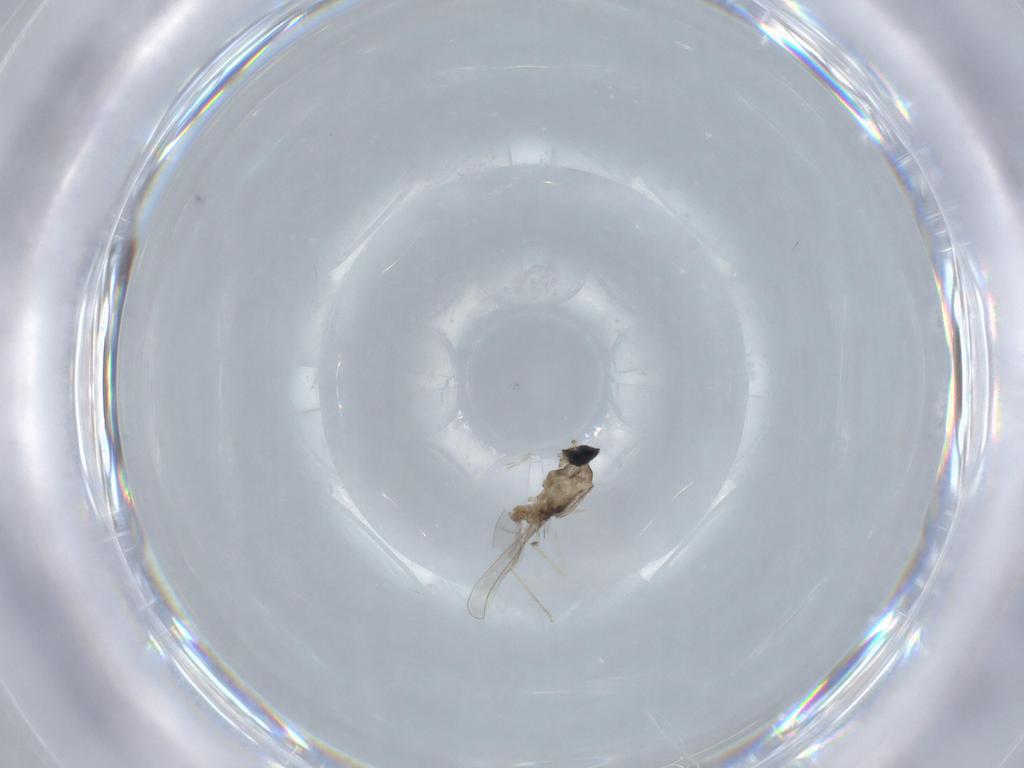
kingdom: Animalia
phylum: Arthropoda
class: Insecta
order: Diptera
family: Cecidomyiidae
